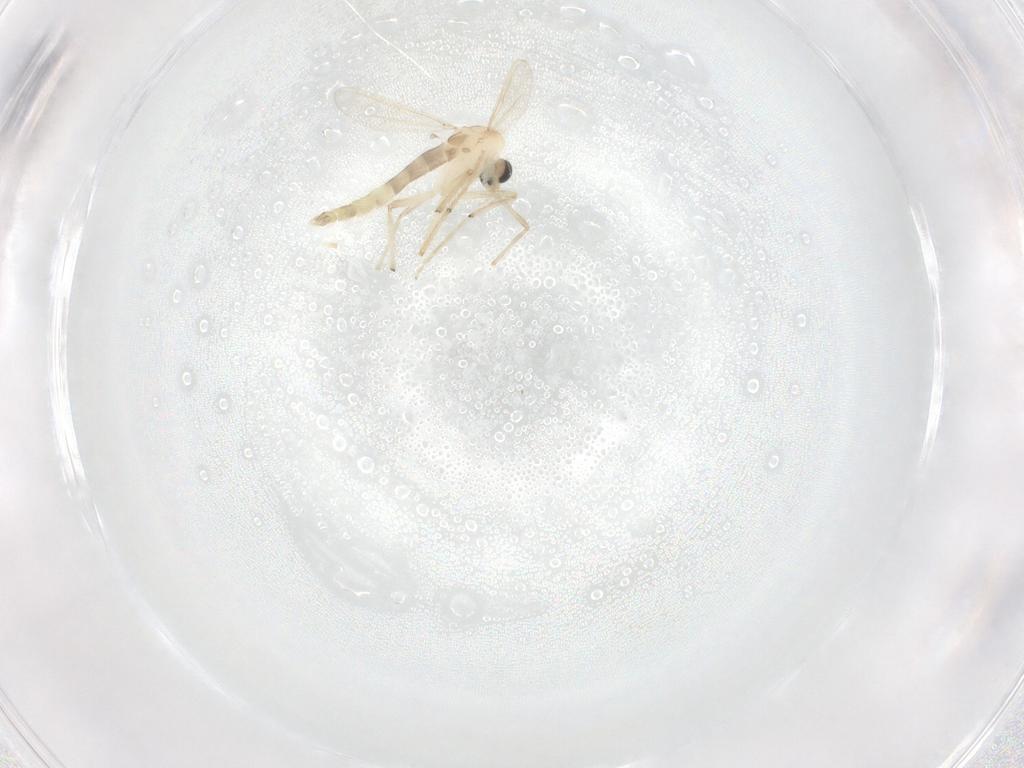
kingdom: Animalia
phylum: Arthropoda
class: Insecta
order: Diptera
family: Chironomidae
